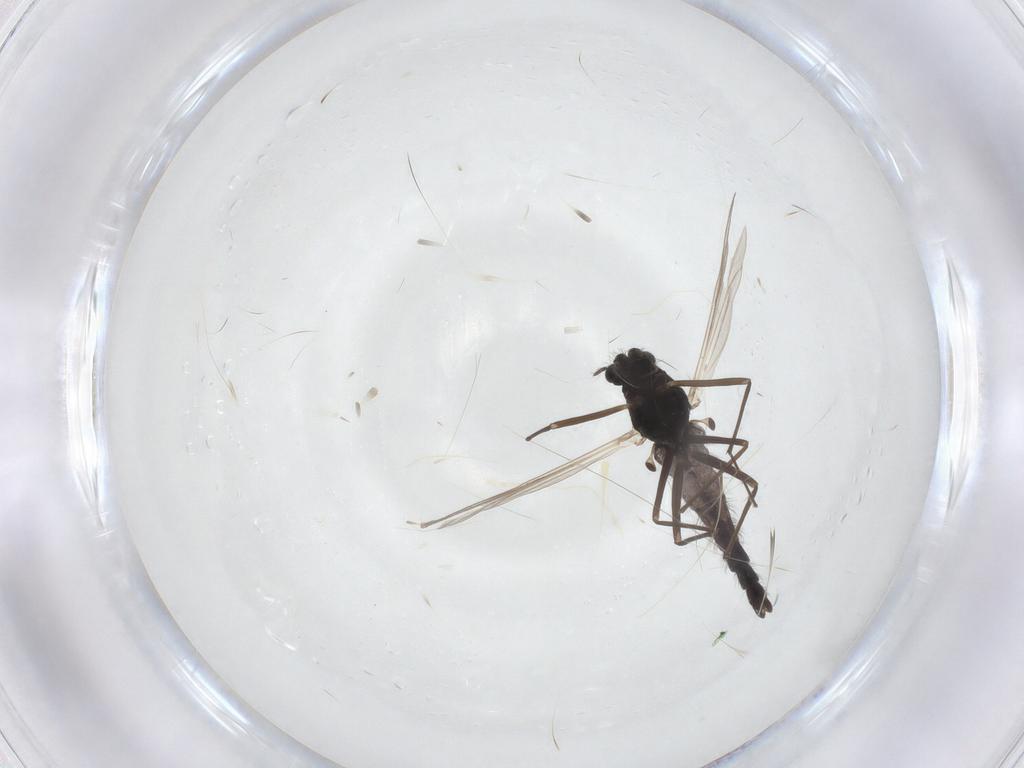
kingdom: Animalia
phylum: Arthropoda
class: Insecta
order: Diptera
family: Chironomidae
